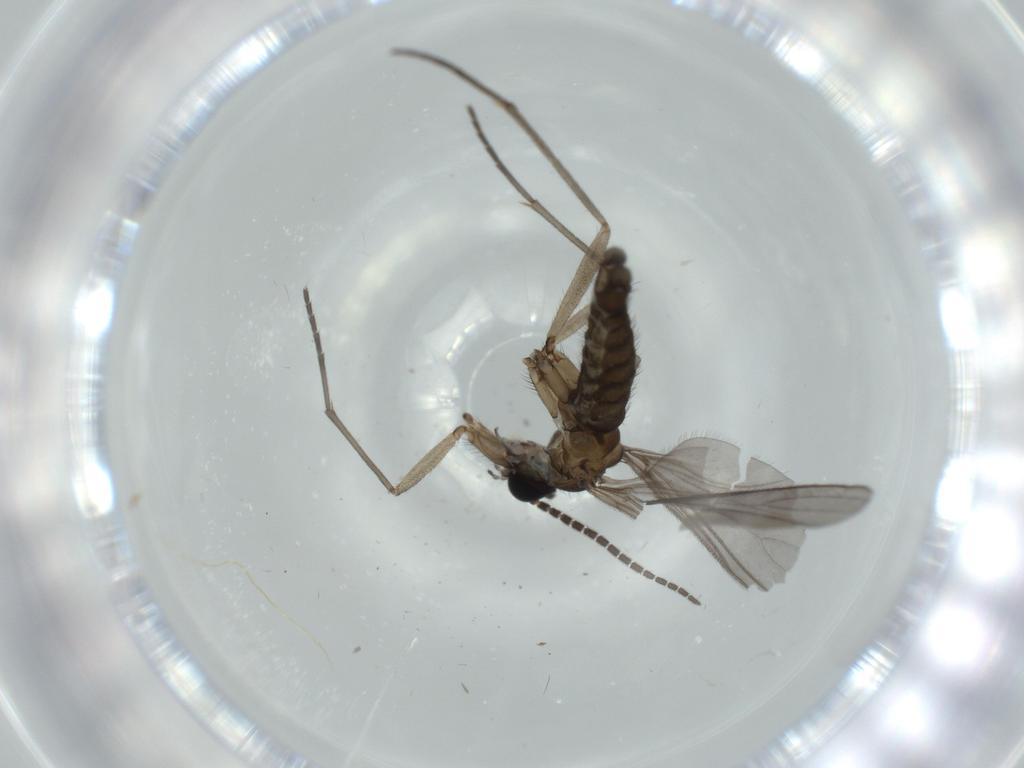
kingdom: Animalia
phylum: Arthropoda
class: Insecta
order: Diptera
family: Sciaridae
